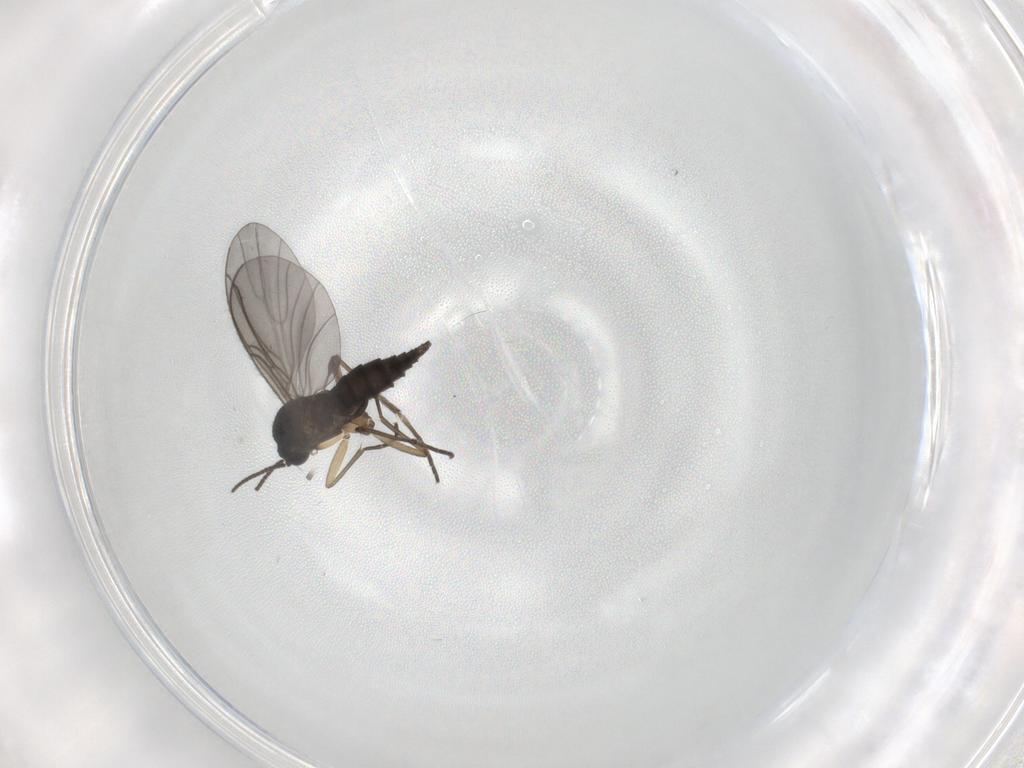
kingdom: Animalia
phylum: Arthropoda
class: Insecta
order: Diptera
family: Sciaridae
